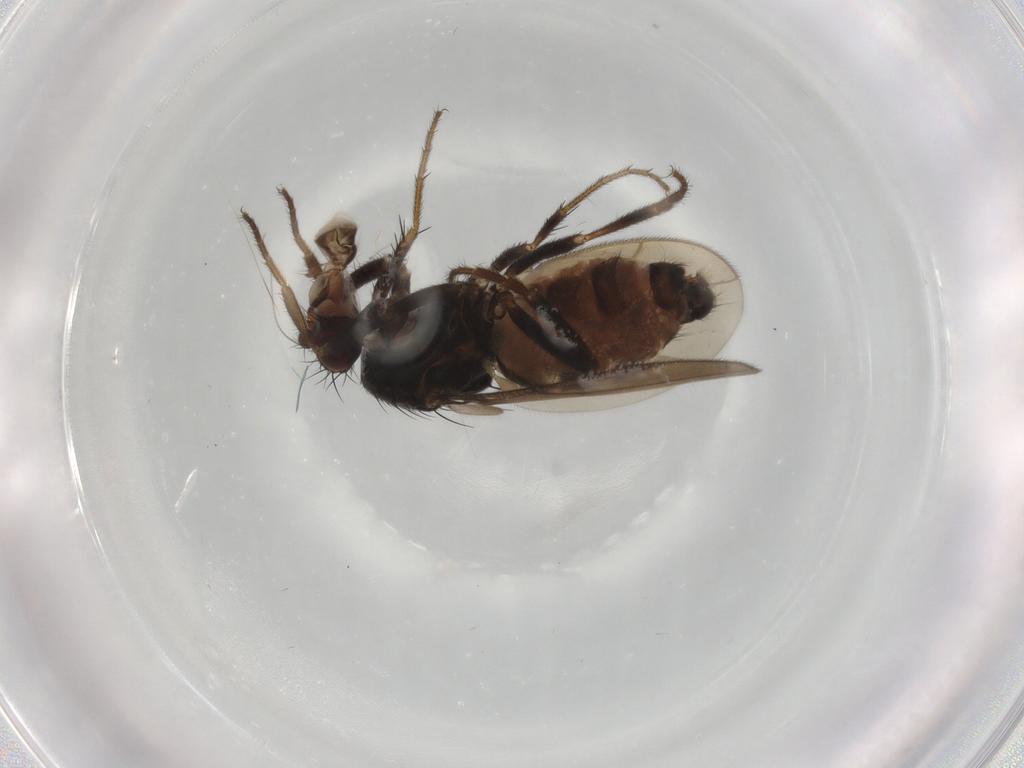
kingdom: Animalia
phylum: Arthropoda
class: Insecta
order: Diptera
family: Sphaeroceridae
